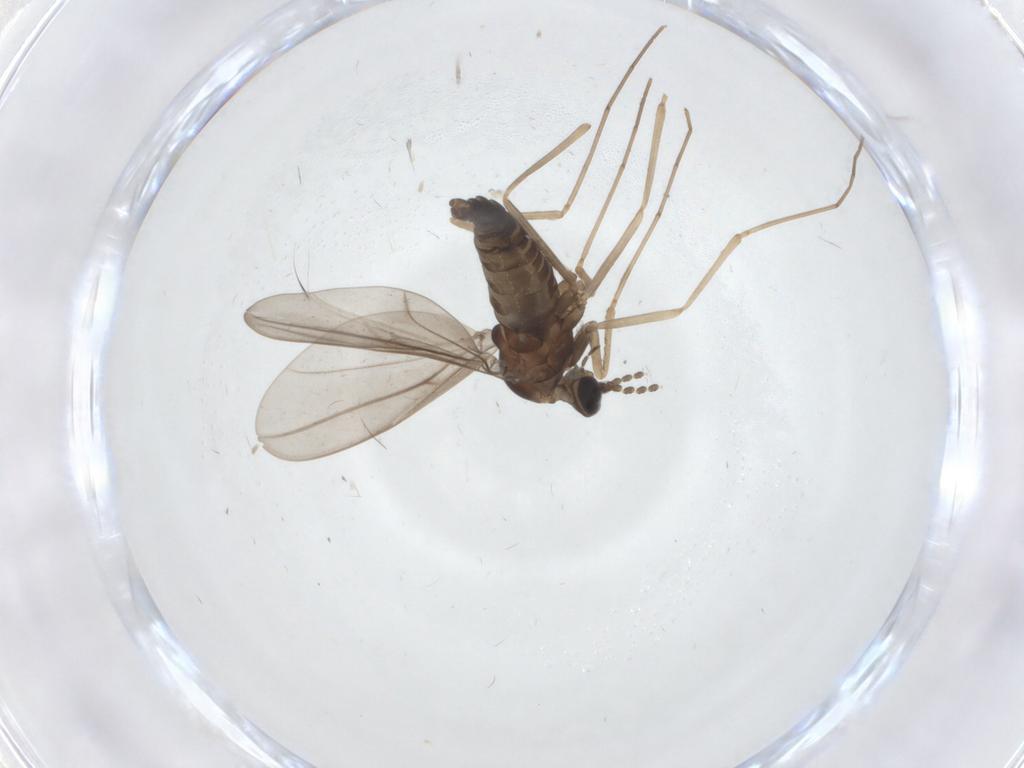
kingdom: Animalia
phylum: Arthropoda
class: Insecta
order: Diptera
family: Cecidomyiidae
